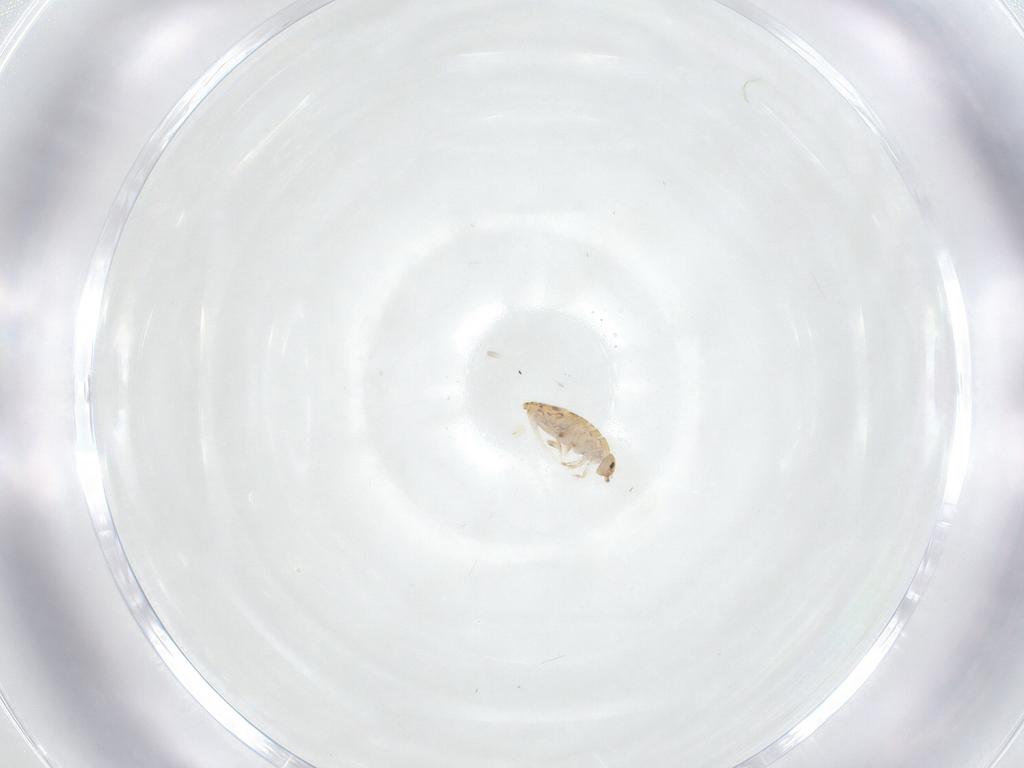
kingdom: Animalia
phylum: Arthropoda
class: Collembola
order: Entomobryomorpha
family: Entomobryidae
